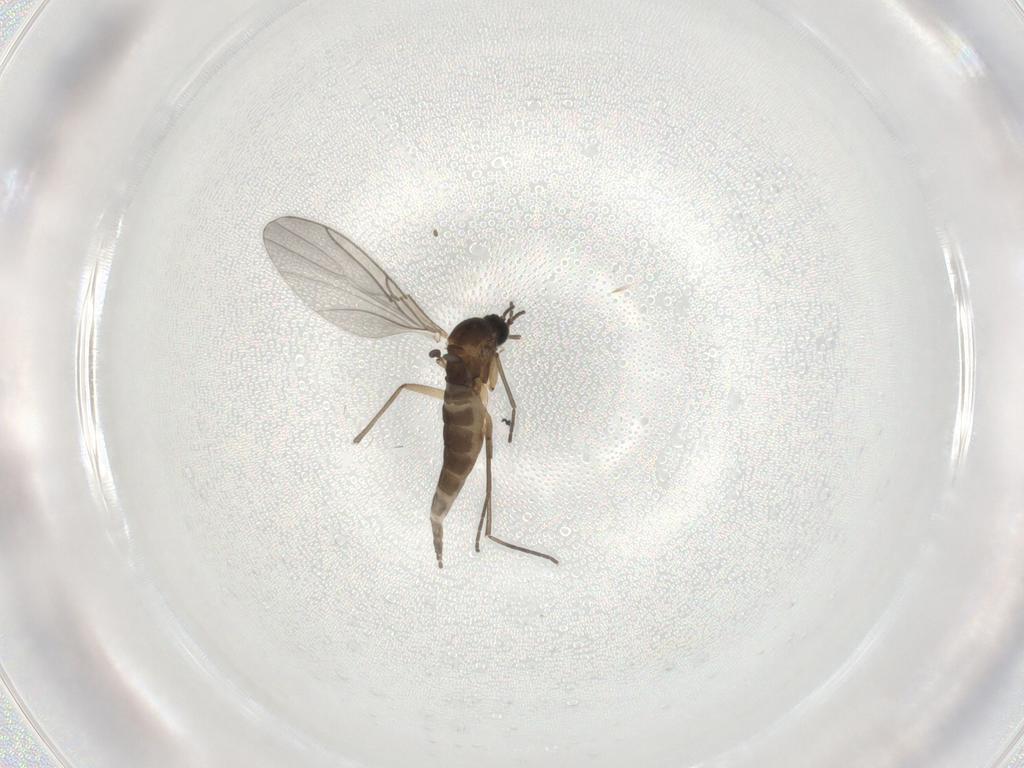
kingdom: Animalia
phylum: Arthropoda
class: Insecta
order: Diptera
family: Sciaridae
